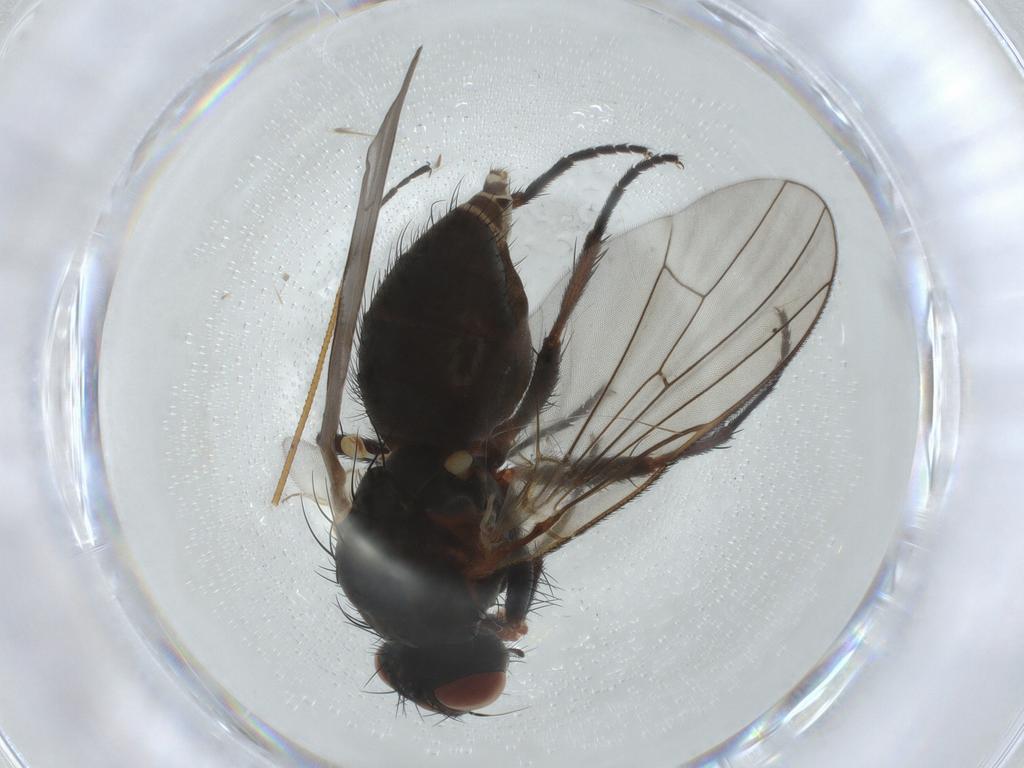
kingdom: Animalia
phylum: Arthropoda
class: Insecta
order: Diptera
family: Anthomyiidae
